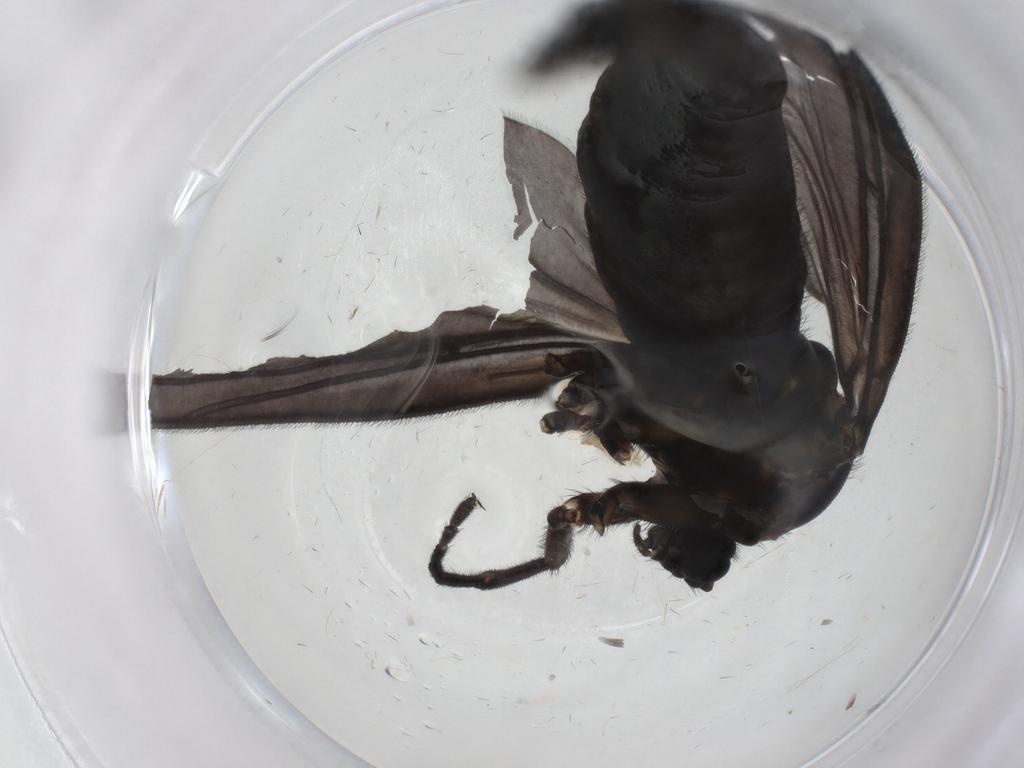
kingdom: Animalia
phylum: Arthropoda
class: Insecta
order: Diptera
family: Sciaridae
